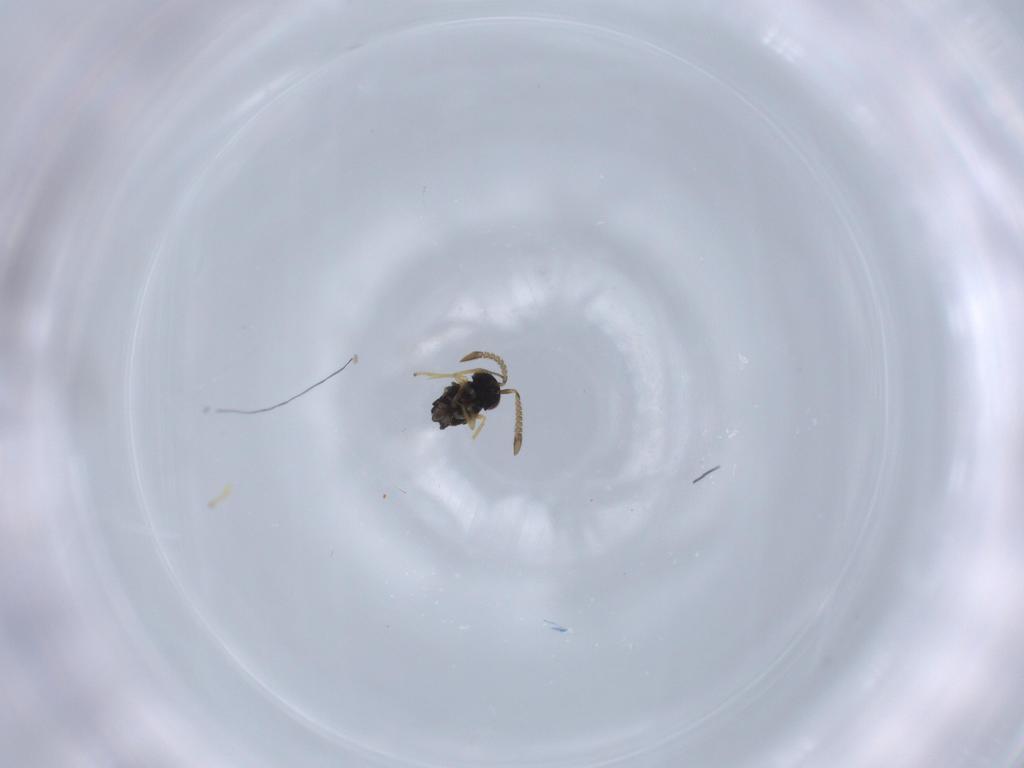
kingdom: Animalia
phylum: Arthropoda
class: Insecta
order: Hymenoptera
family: Encyrtidae
